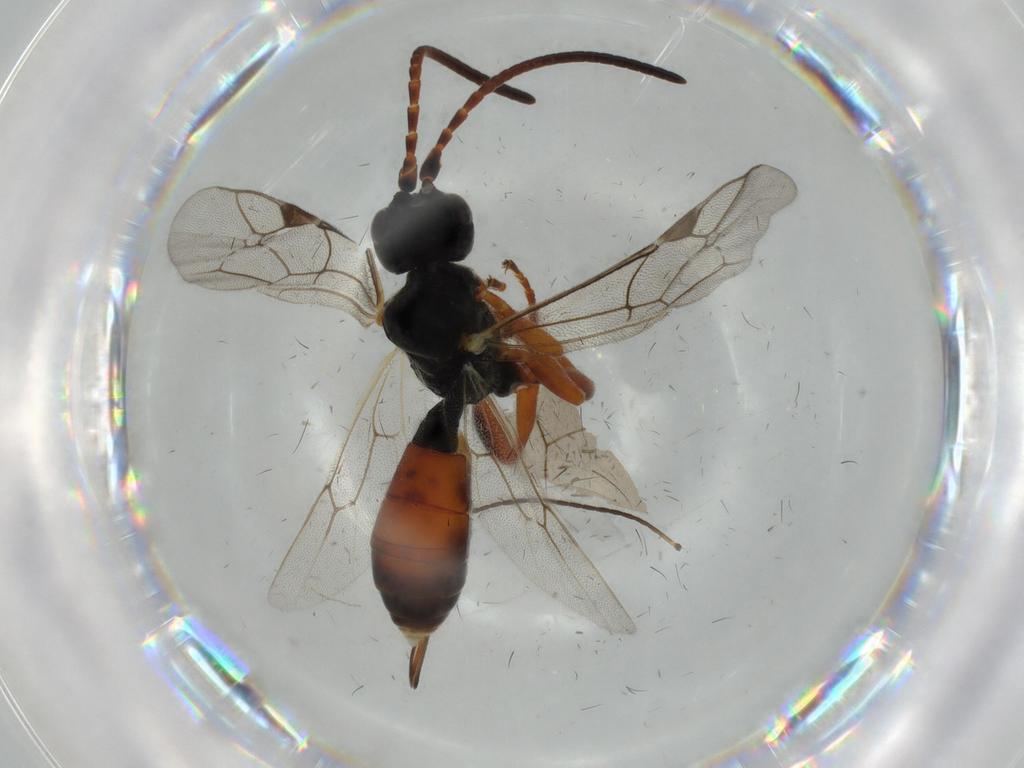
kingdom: Animalia
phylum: Arthropoda
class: Insecta
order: Hymenoptera
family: Ichneumonidae
